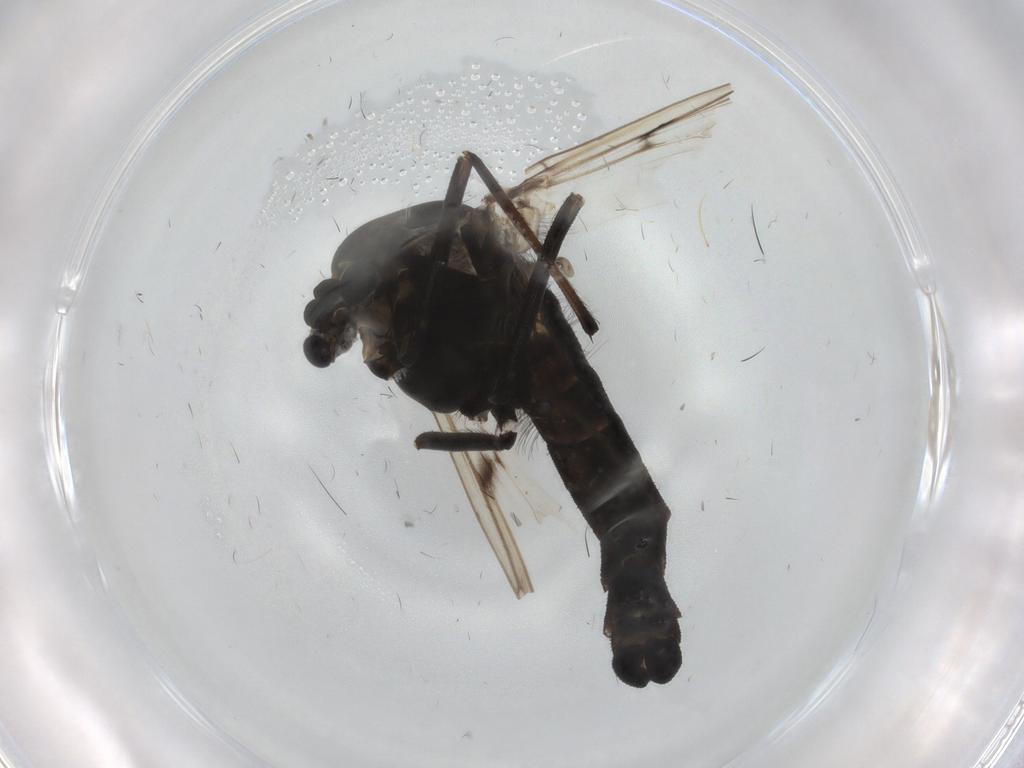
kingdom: Animalia
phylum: Arthropoda
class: Insecta
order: Diptera
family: Chironomidae
